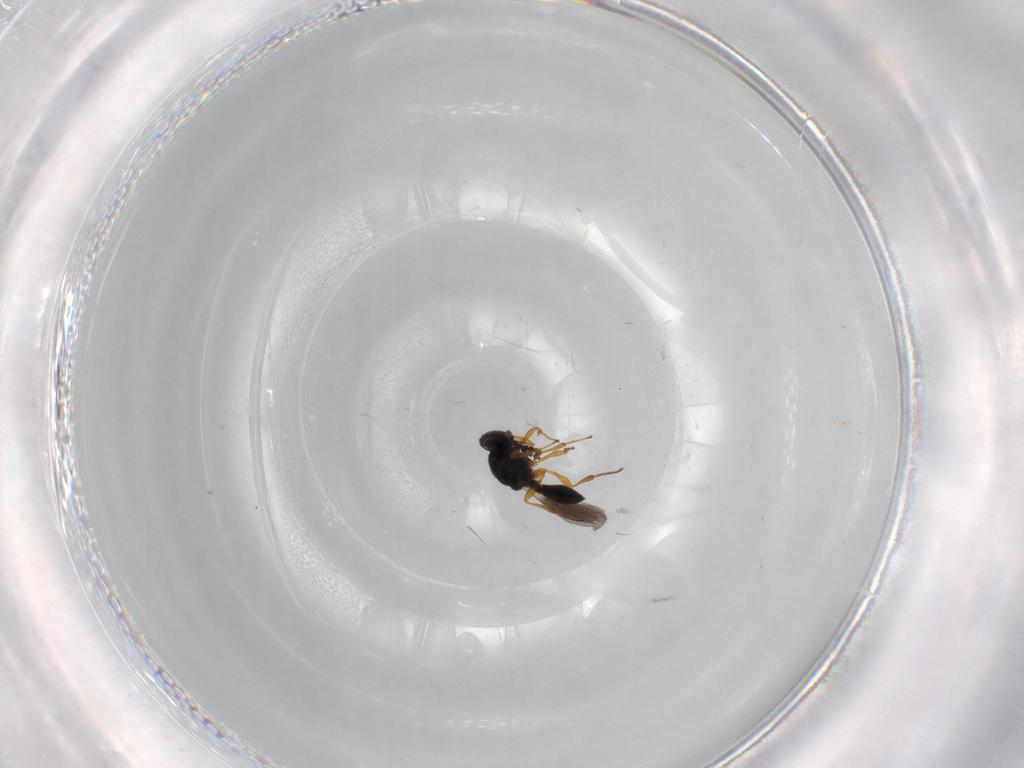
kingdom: Animalia
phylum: Arthropoda
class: Insecta
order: Hymenoptera
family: Platygastridae
